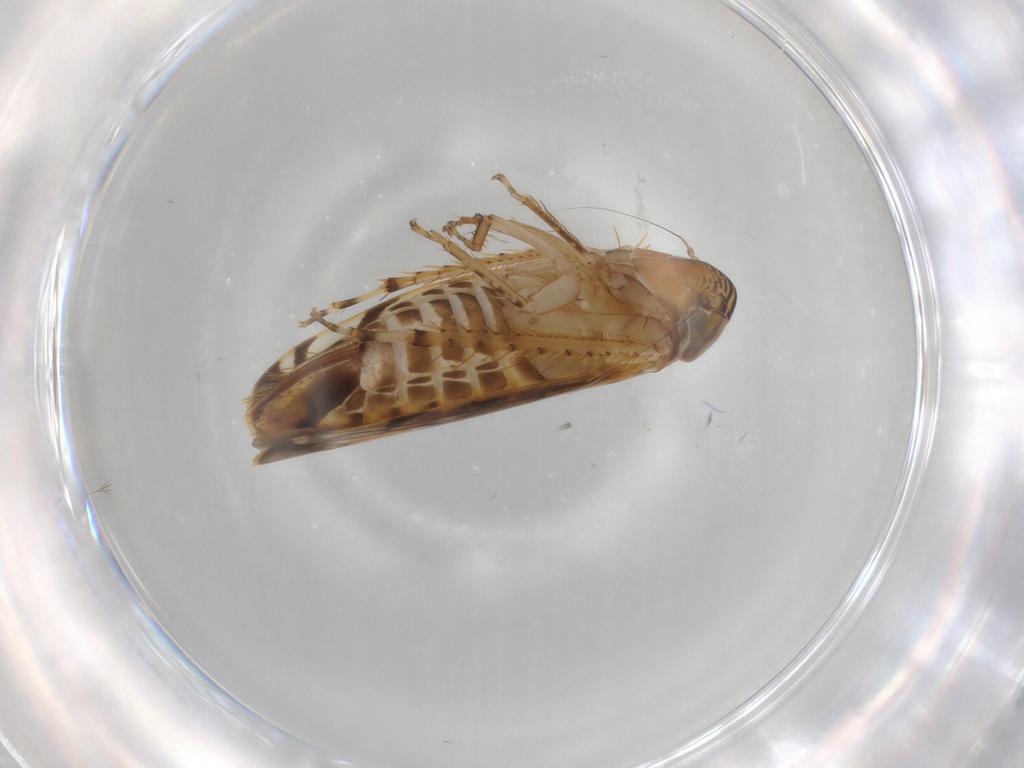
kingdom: Animalia
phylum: Arthropoda
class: Insecta
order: Hemiptera
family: Cicadellidae
